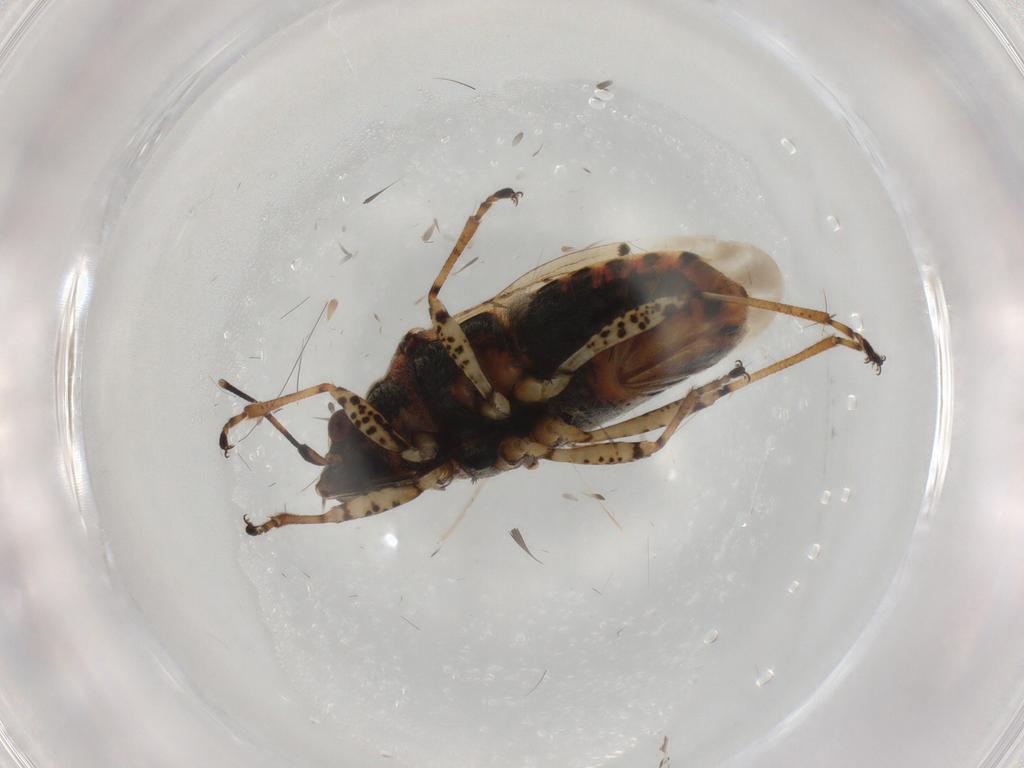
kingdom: Animalia
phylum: Arthropoda
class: Insecta
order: Hemiptera
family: Lygaeidae
